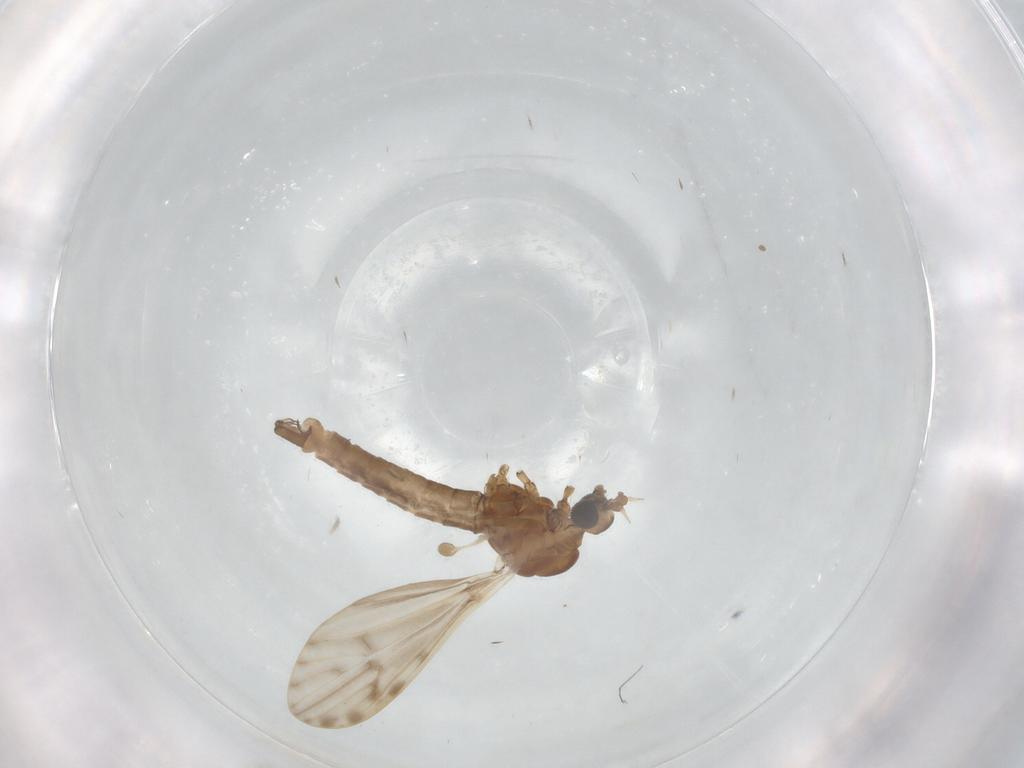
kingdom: Animalia
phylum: Arthropoda
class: Insecta
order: Diptera
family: Limoniidae
